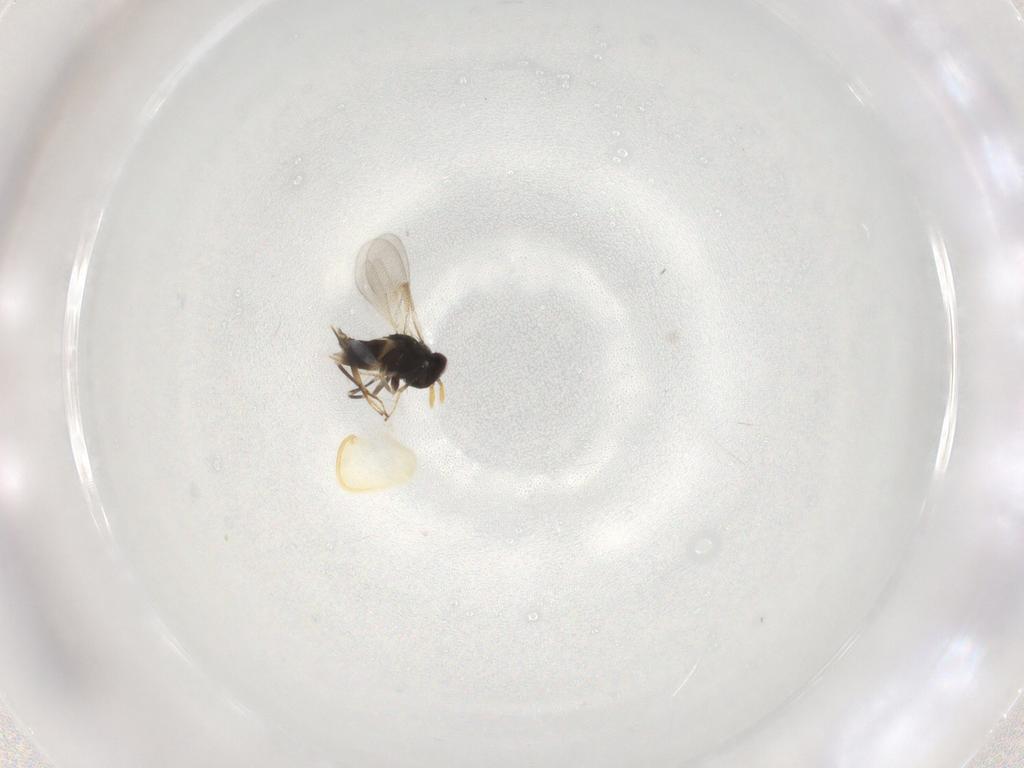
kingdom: Animalia
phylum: Arthropoda
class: Insecta
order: Hymenoptera
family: Aphelinidae
